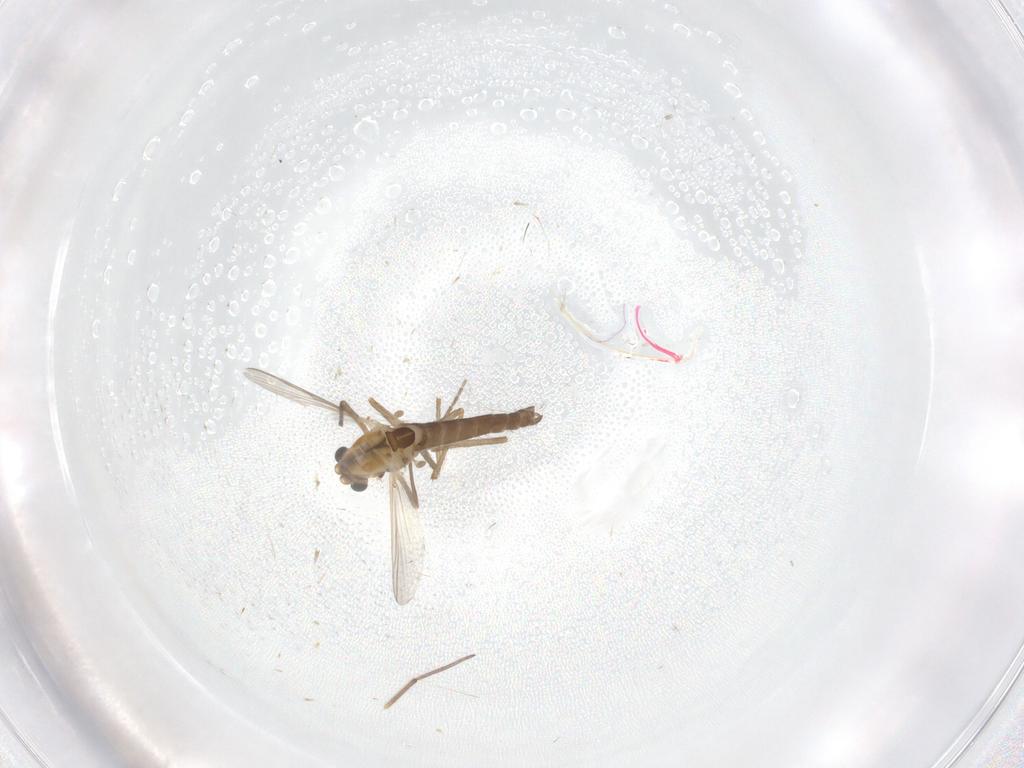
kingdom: Animalia
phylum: Arthropoda
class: Insecta
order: Diptera
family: Chironomidae
